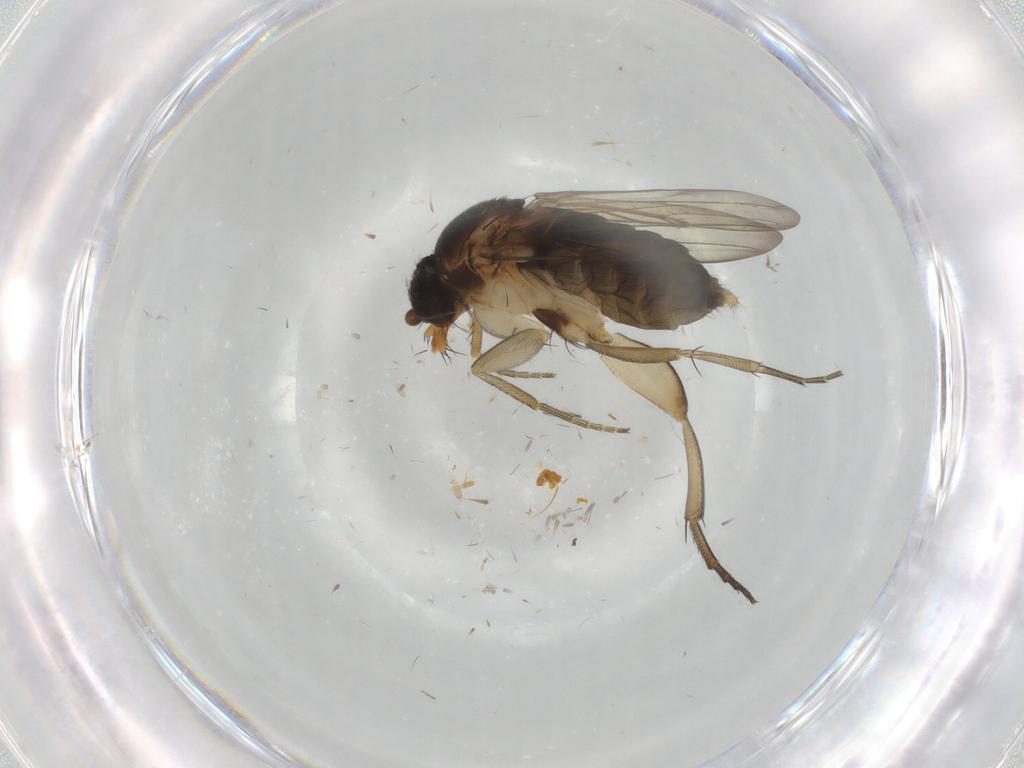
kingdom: Animalia
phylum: Arthropoda
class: Insecta
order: Diptera
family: Phoridae
